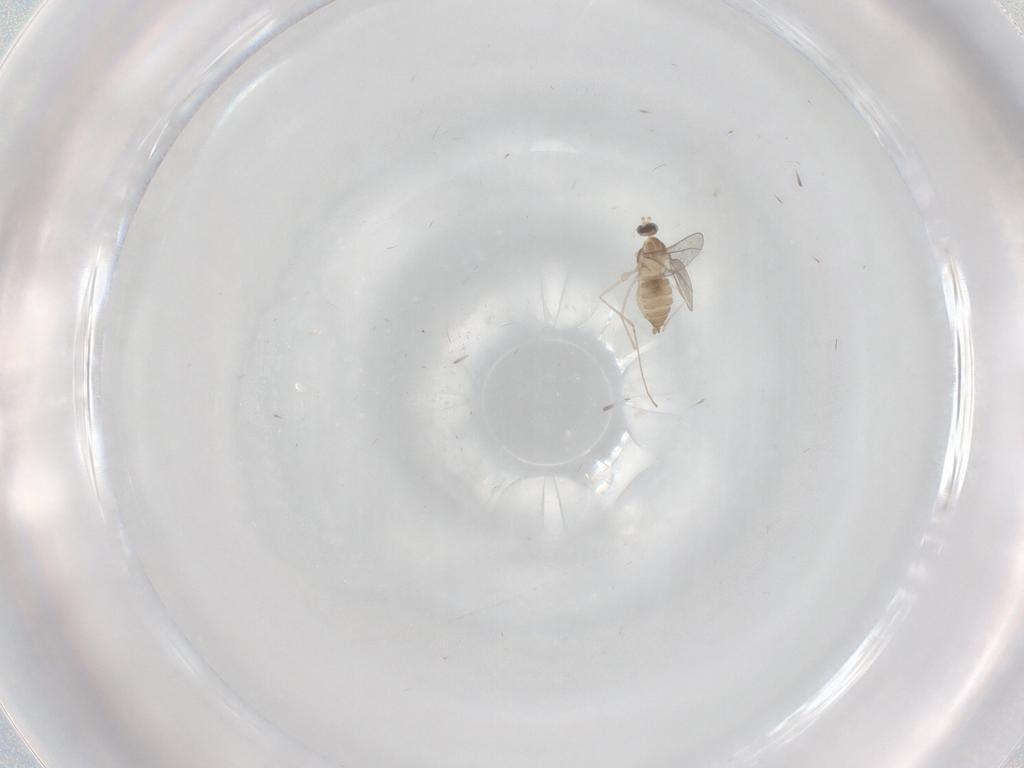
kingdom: Animalia
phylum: Arthropoda
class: Insecta
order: Diptera
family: Cecidomyiidae
